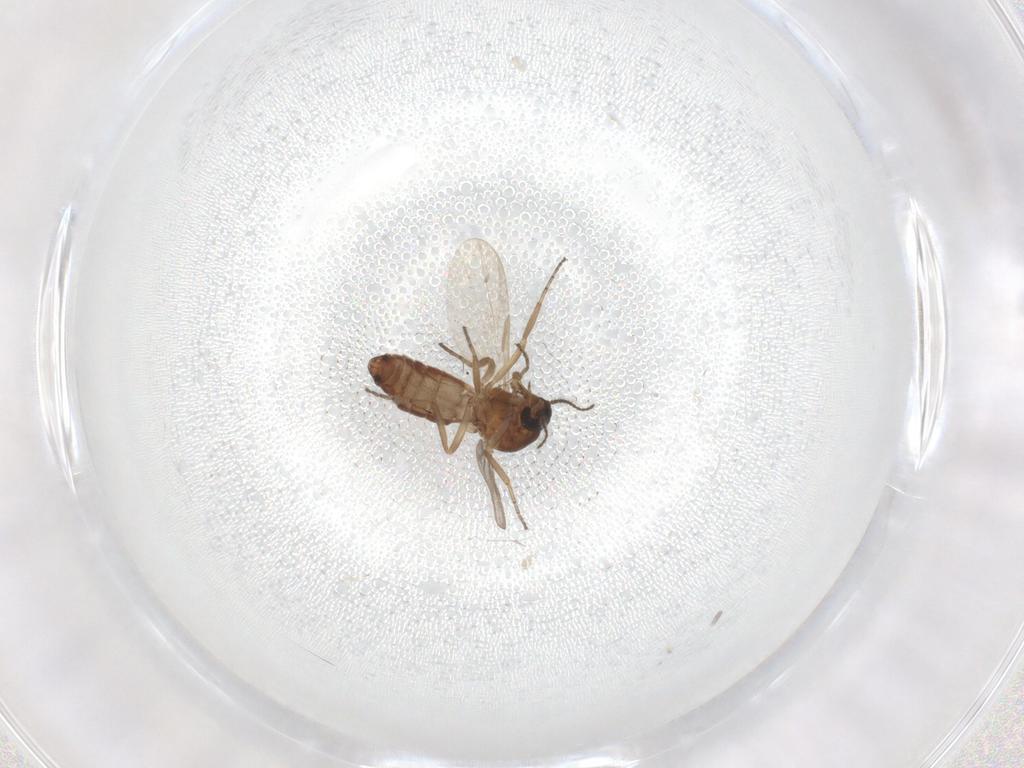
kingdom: Animalia
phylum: Arthropoda
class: Insecta
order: Diptera
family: Ceratopogonidae
